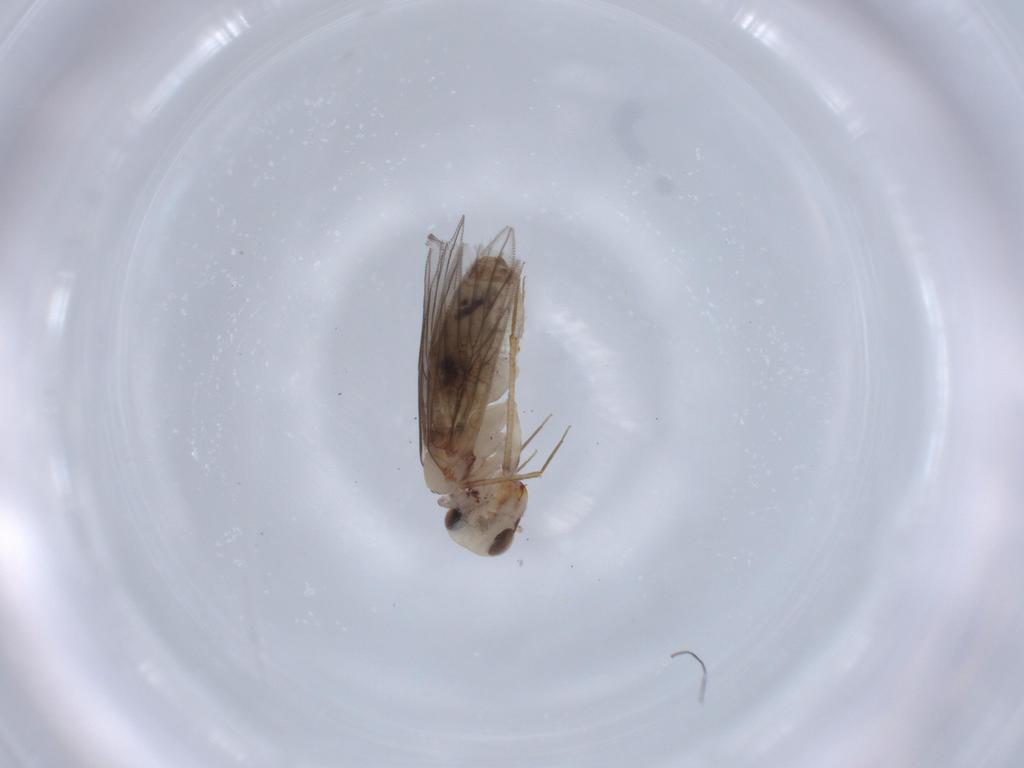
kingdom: Animalia
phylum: Arthropoda
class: Insecta
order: Psocodea
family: Lepidopsocidae
